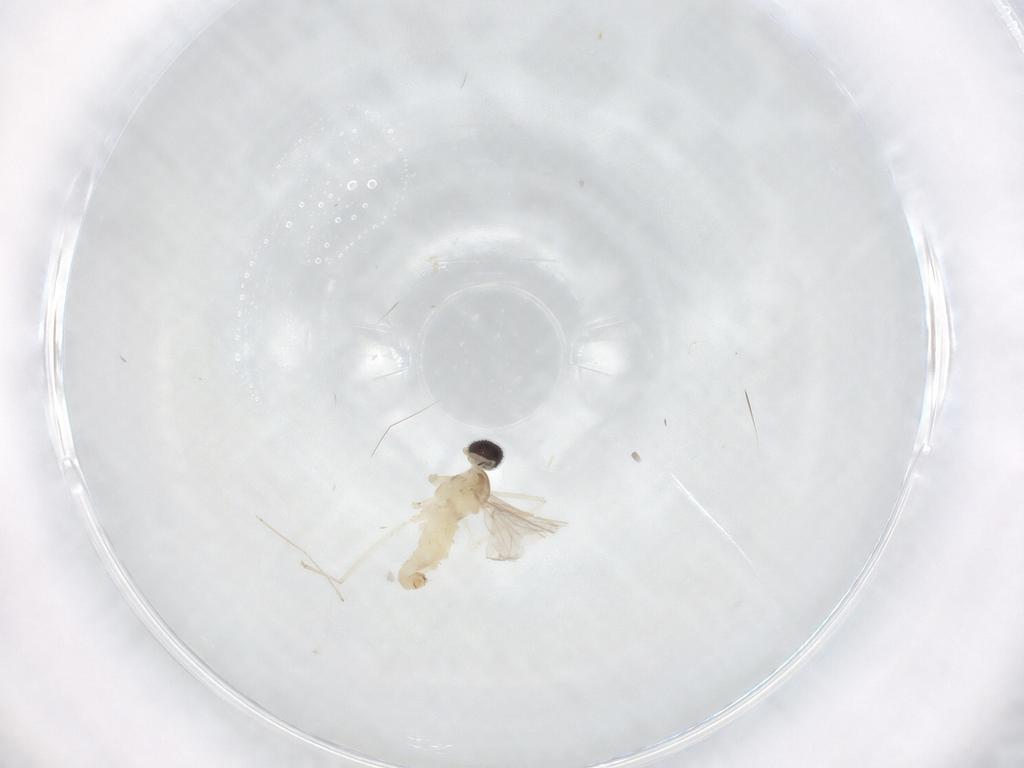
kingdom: Animalia
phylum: Arthropoda
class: Insecta
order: Diptera
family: Cecidomyiidae
